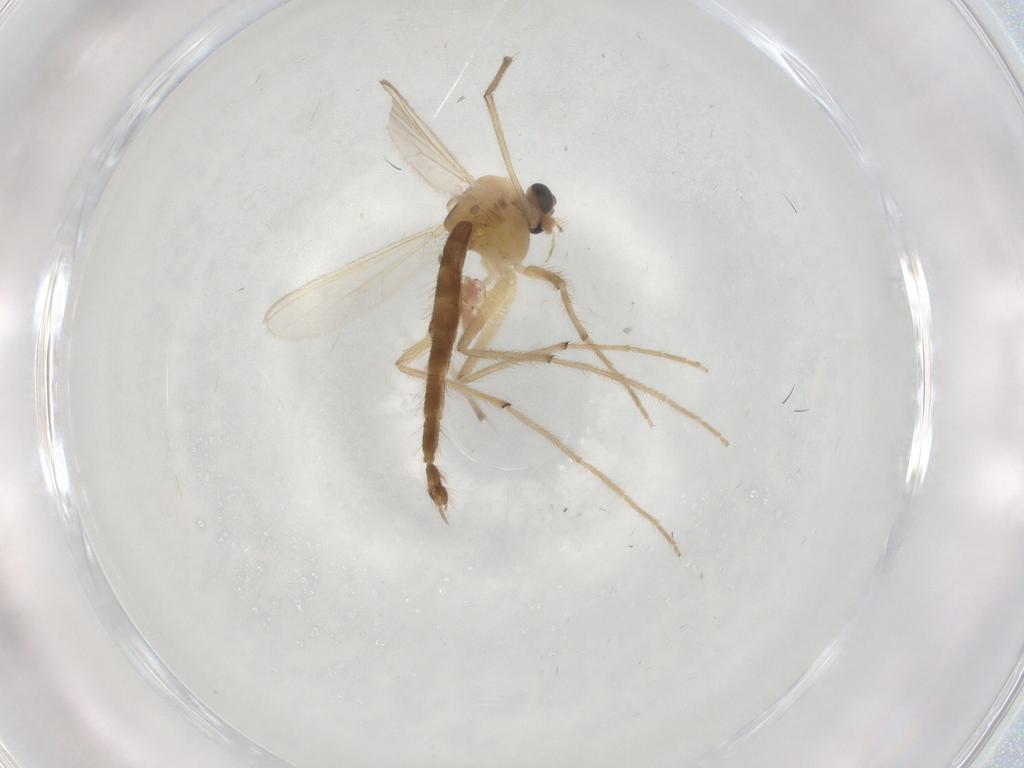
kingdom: Animalia
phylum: Arthropoda
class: Insecta
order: Diptera
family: Chironomidae
